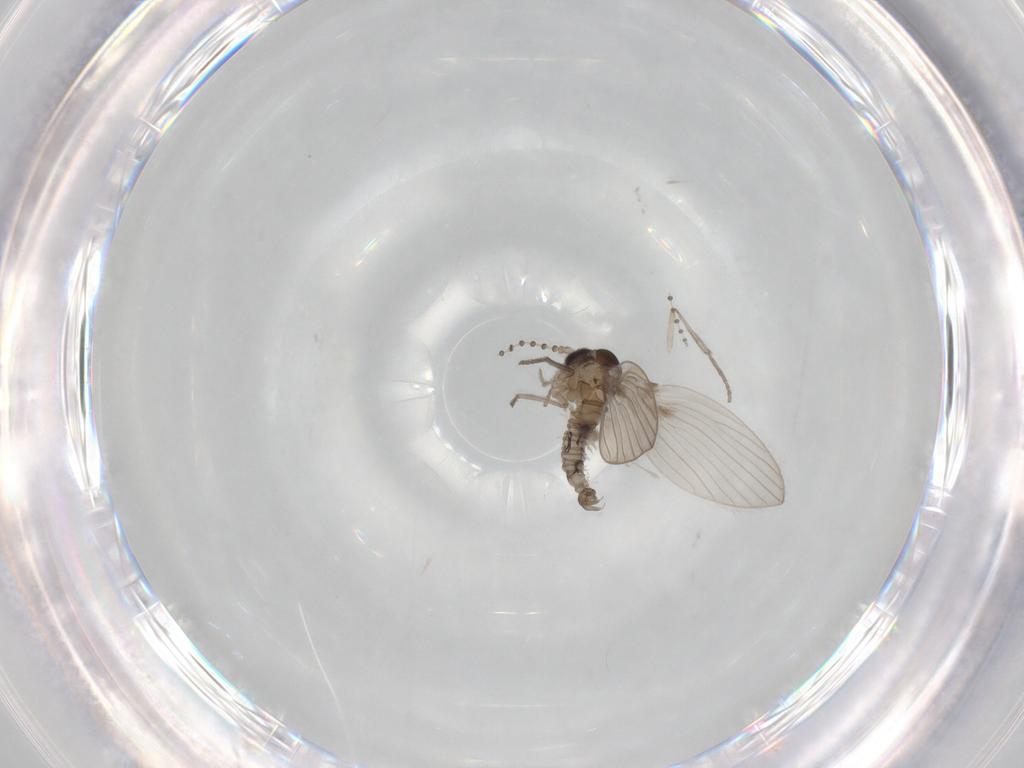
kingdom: Animalia
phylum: Arthropoda
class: Insecta
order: Diptera
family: Psychodidae
